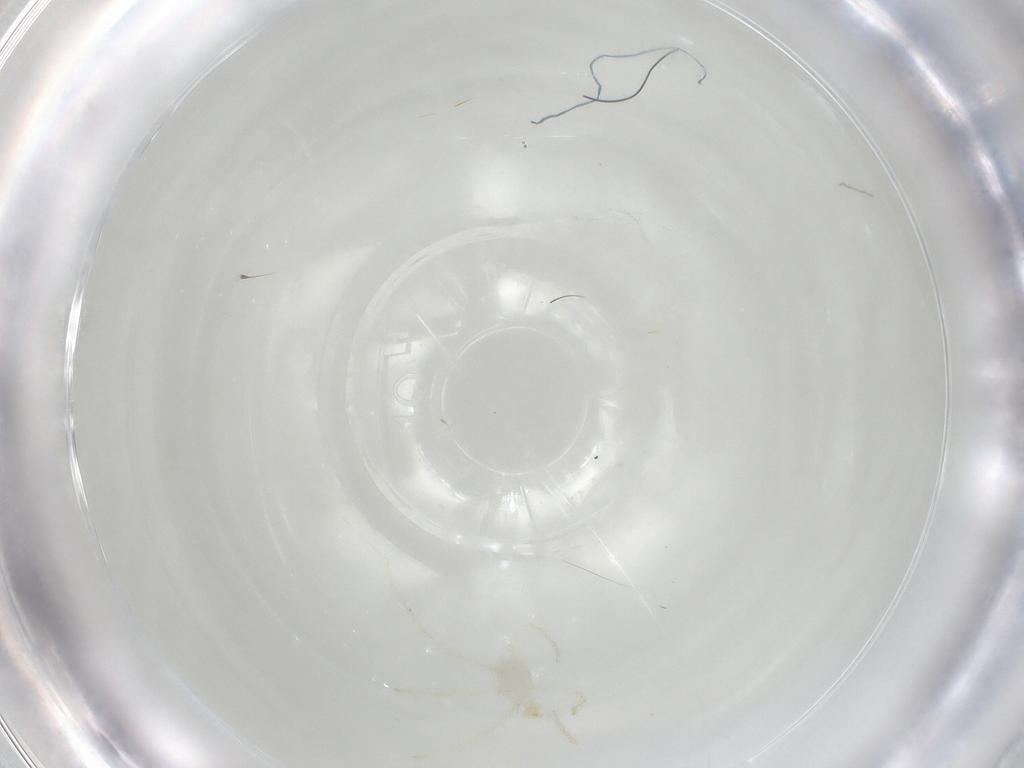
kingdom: Animalia
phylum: Arthropoda
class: Arachnida
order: Trombidiformes
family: Erythraeidae
